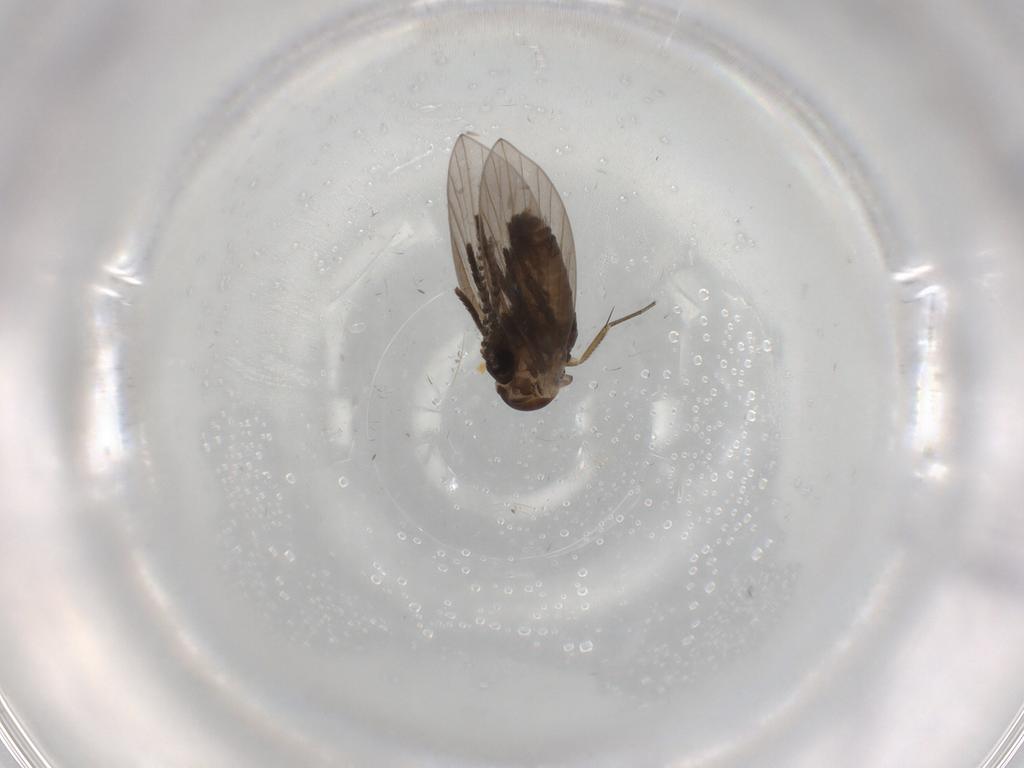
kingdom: Animalia
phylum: Arthropoda
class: Insecta
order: Diptera
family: Psychodidae
